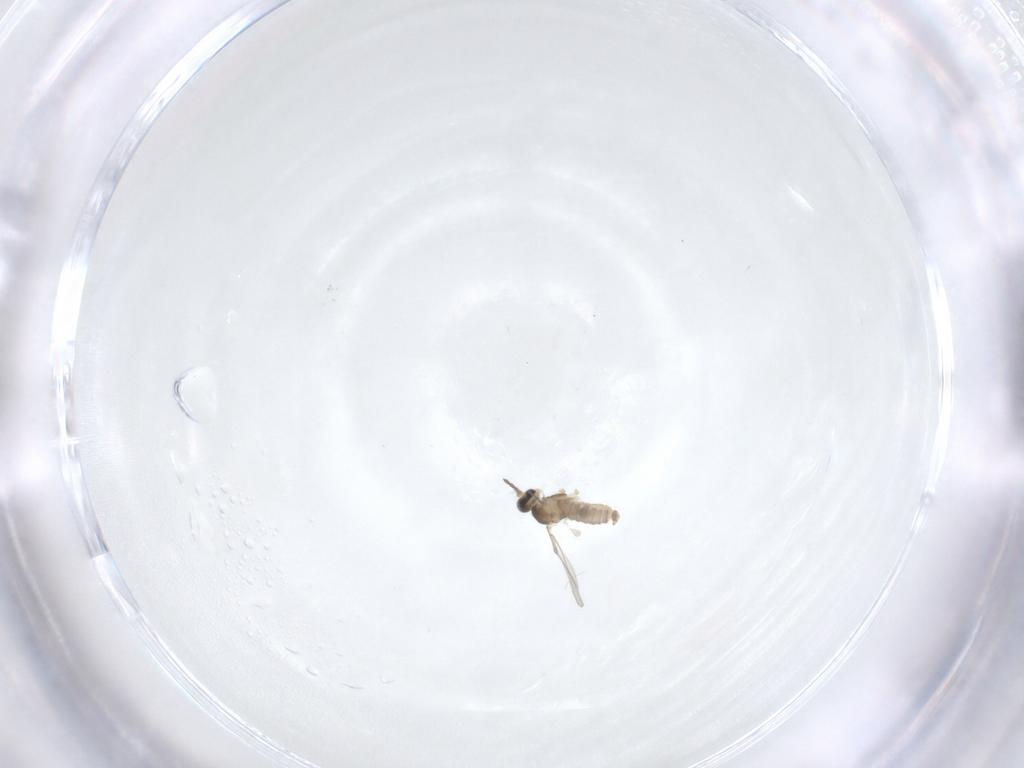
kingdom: Animalia
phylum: Arthropoda
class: Insecta
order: Diptera
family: Cecidomyiidae
